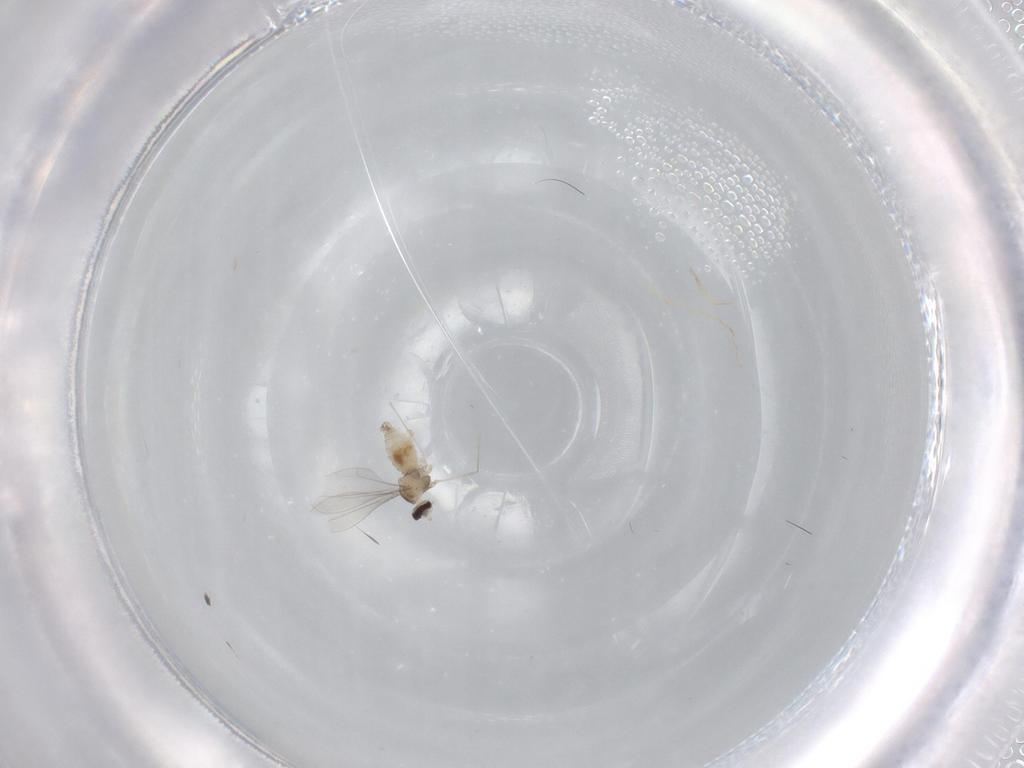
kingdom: Animalia
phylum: Arthropoda
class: Insecta
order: Diptera
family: Cecidomyiidae
